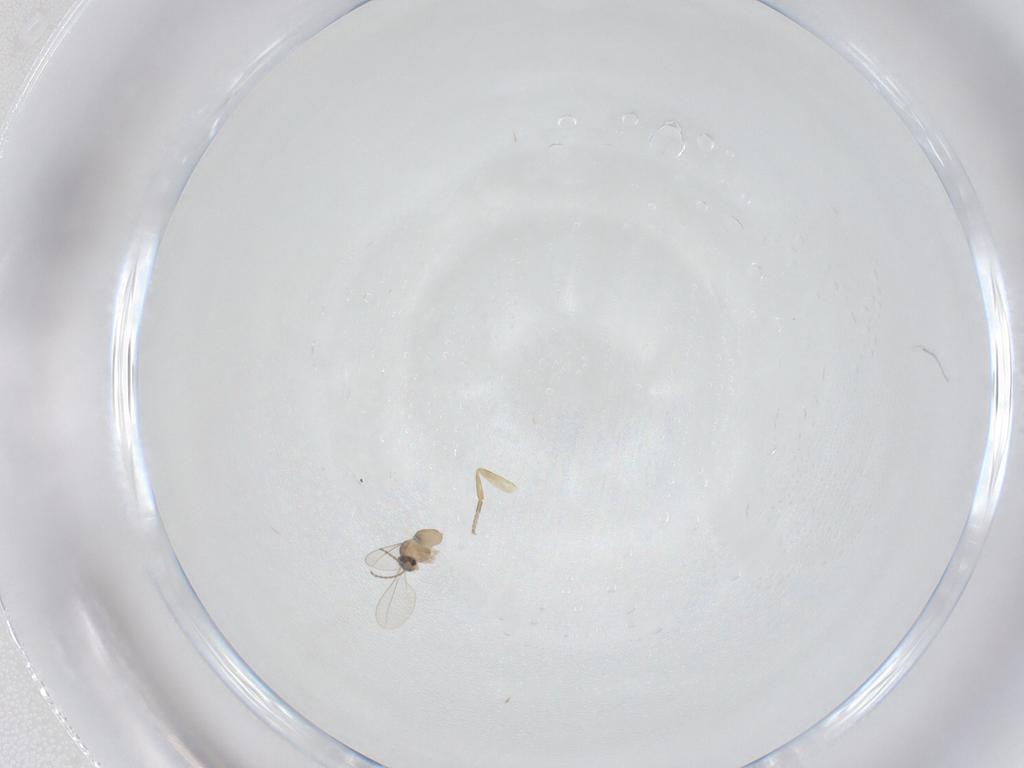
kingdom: Animalia
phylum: Arthropoda
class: Insecta
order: Diptera
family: Phoridae
